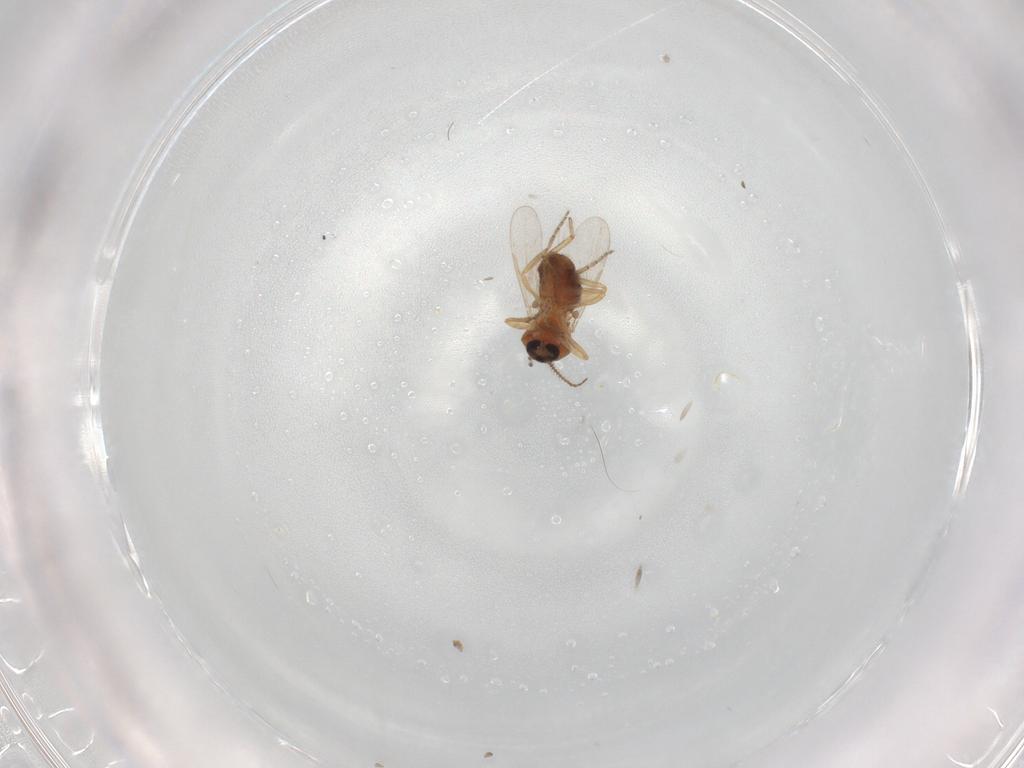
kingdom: Animalia
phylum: Arthropoda
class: Insecta
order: Diptera
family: Ceratopogonidae
